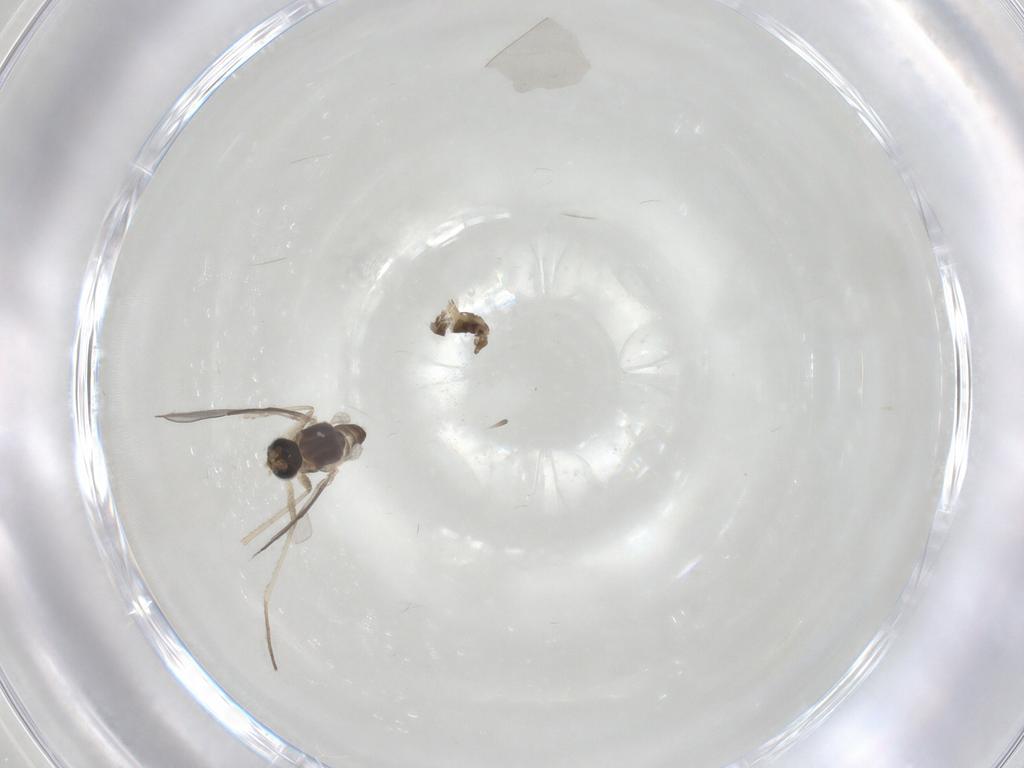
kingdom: Animalia
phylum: Arthropoda
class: Insecta
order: Diptera
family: Cecidomyiidae
